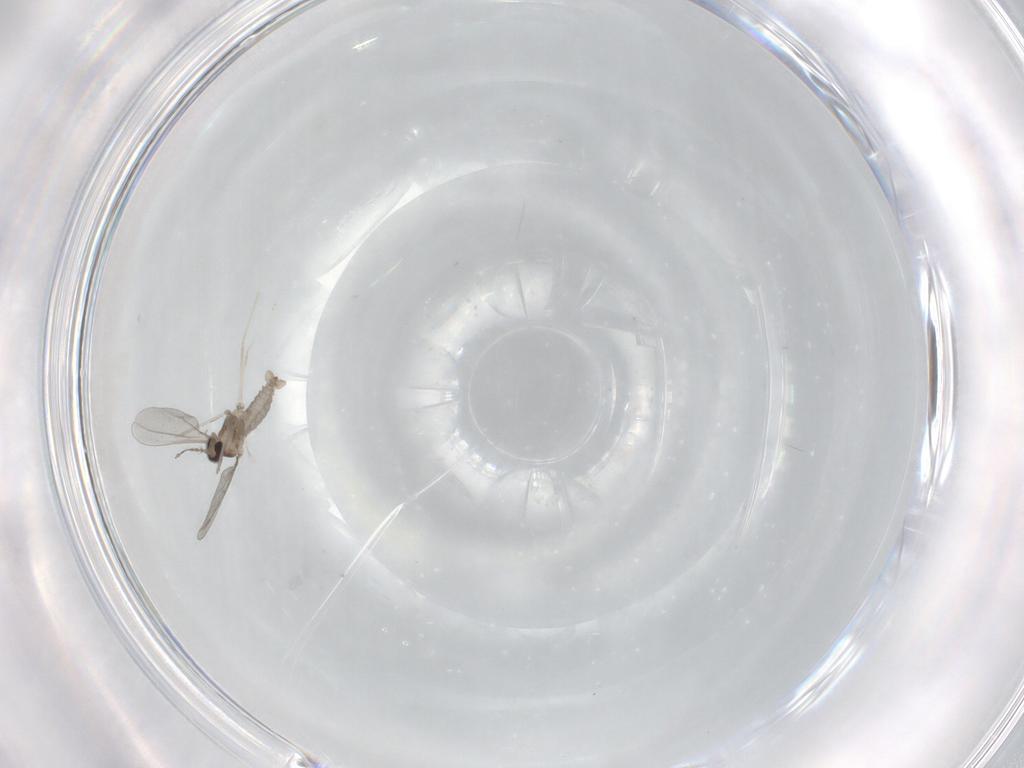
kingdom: Animalia
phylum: Arthropoda
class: Insecta
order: Diptera
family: Cecidomyiidae
